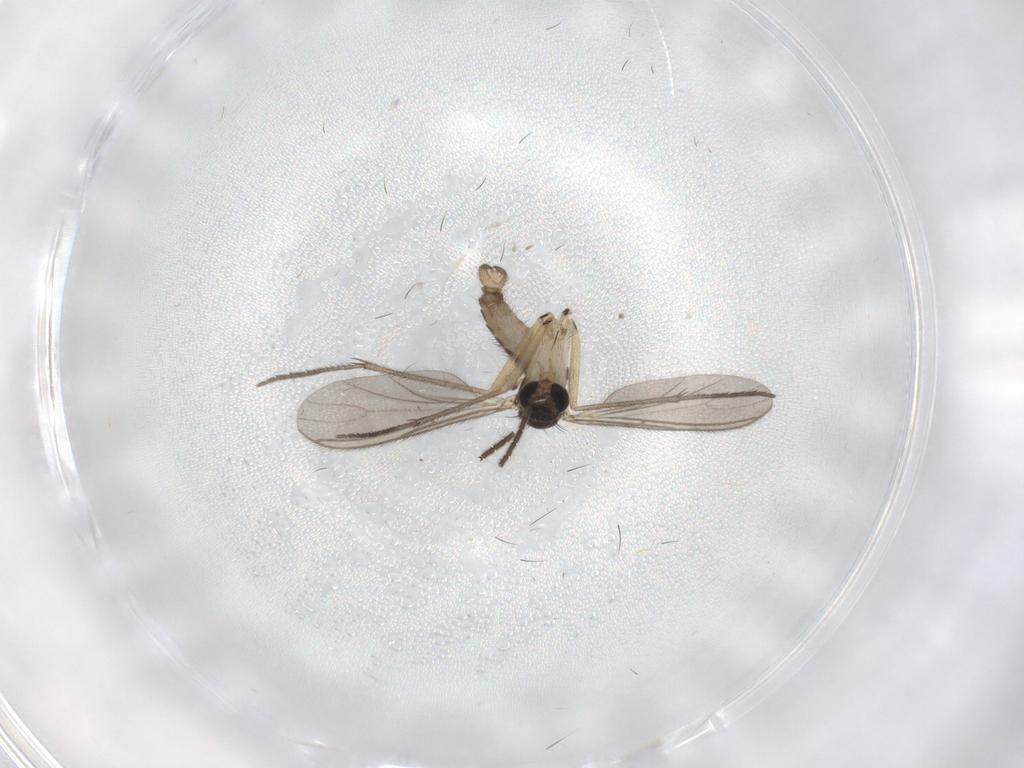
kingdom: Animalia
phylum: Arthropoda
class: Insecta
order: Diptera
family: Sciaridae
